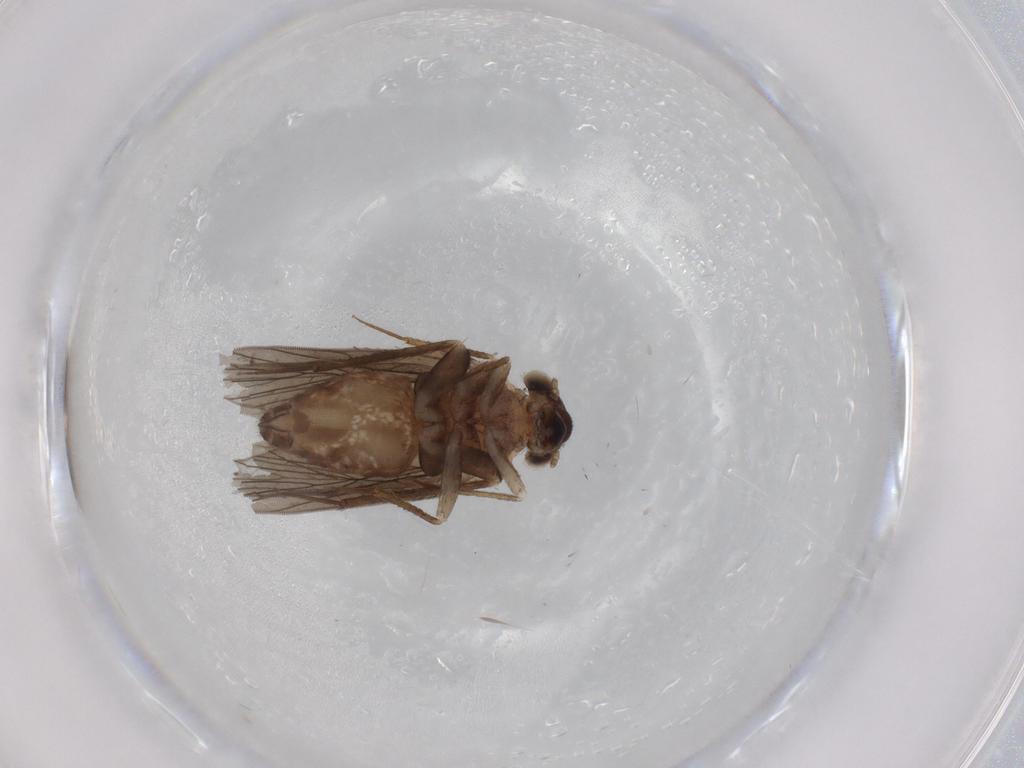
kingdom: Animalia
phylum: Arthropoda
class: Insecta
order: Psocodea
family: Lepidopsocidae
